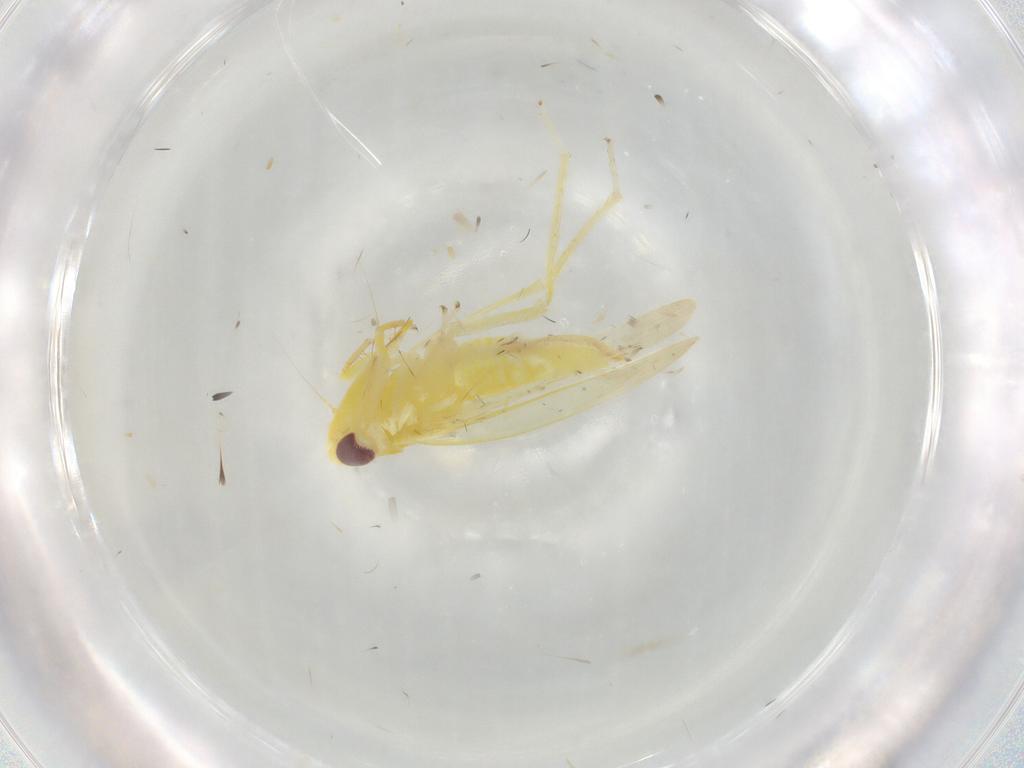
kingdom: Animalia
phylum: Arthropoda
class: Insecta
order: Hemiptera
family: Cicadellidae
